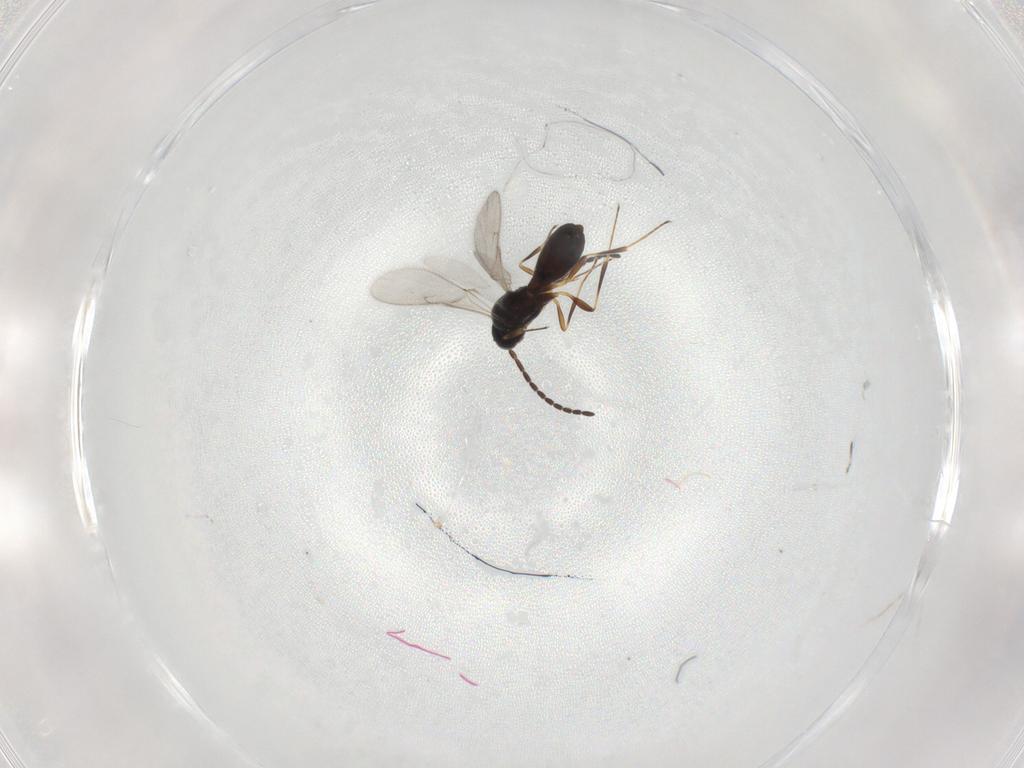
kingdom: Animalia
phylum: Arthropoda
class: Insecta
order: Hymenoptera
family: Scelionidae
